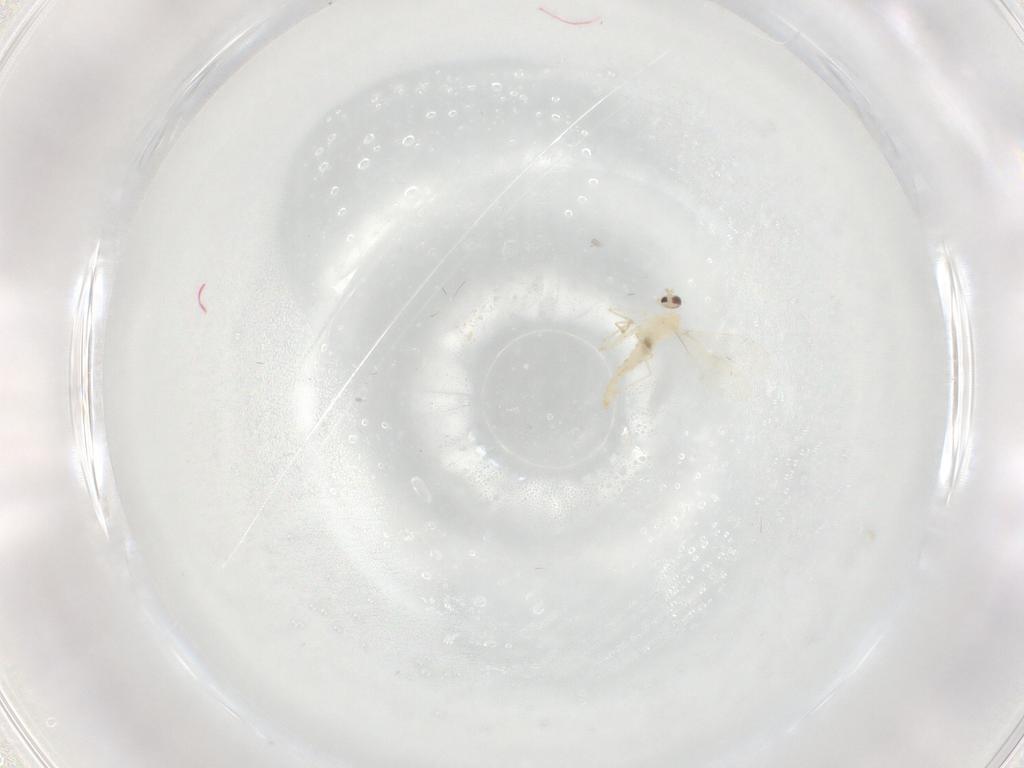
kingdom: Animalia
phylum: Arthropoda
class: Insecta
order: Diptera
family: Cecidomyiidae
